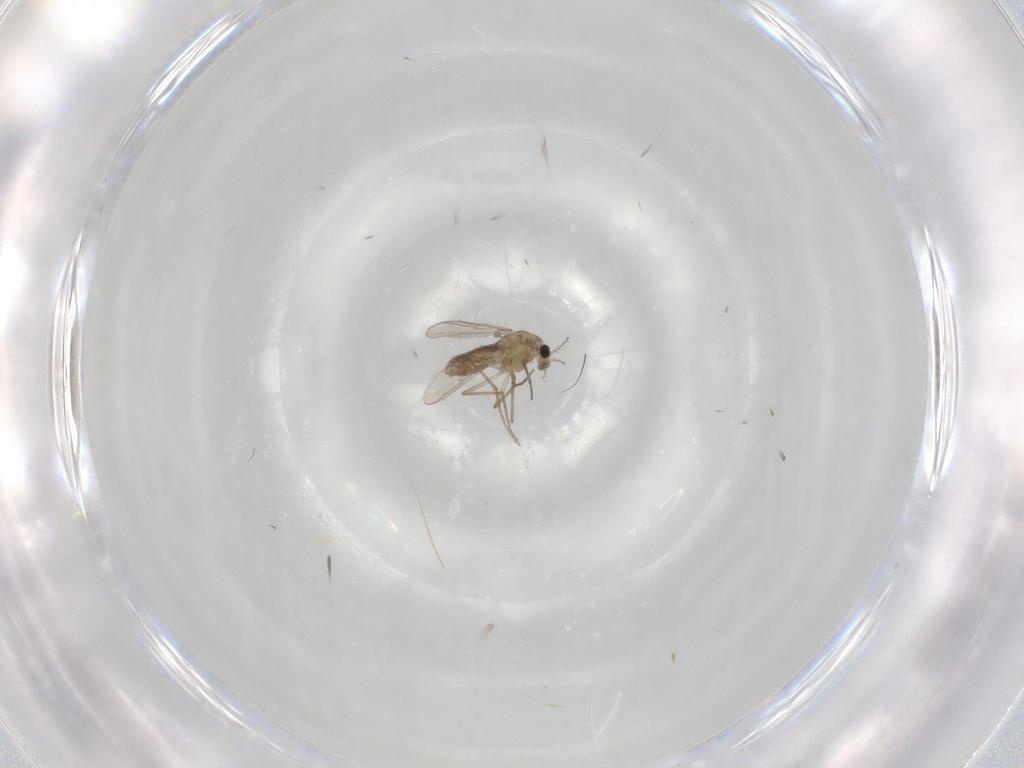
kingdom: Animalia
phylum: Arthropoda
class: Insecta
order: Diptera
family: Chironomidae
